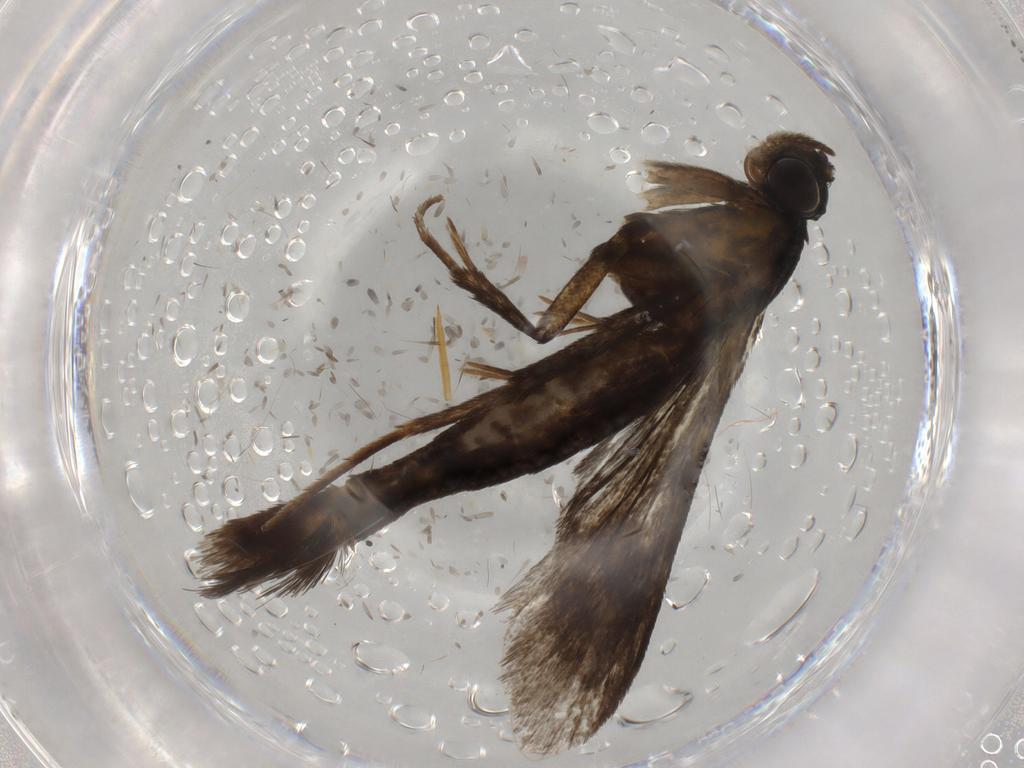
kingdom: Animalia
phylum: Arthropoda
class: Insecta
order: Lepidoptera
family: Sesiidae
